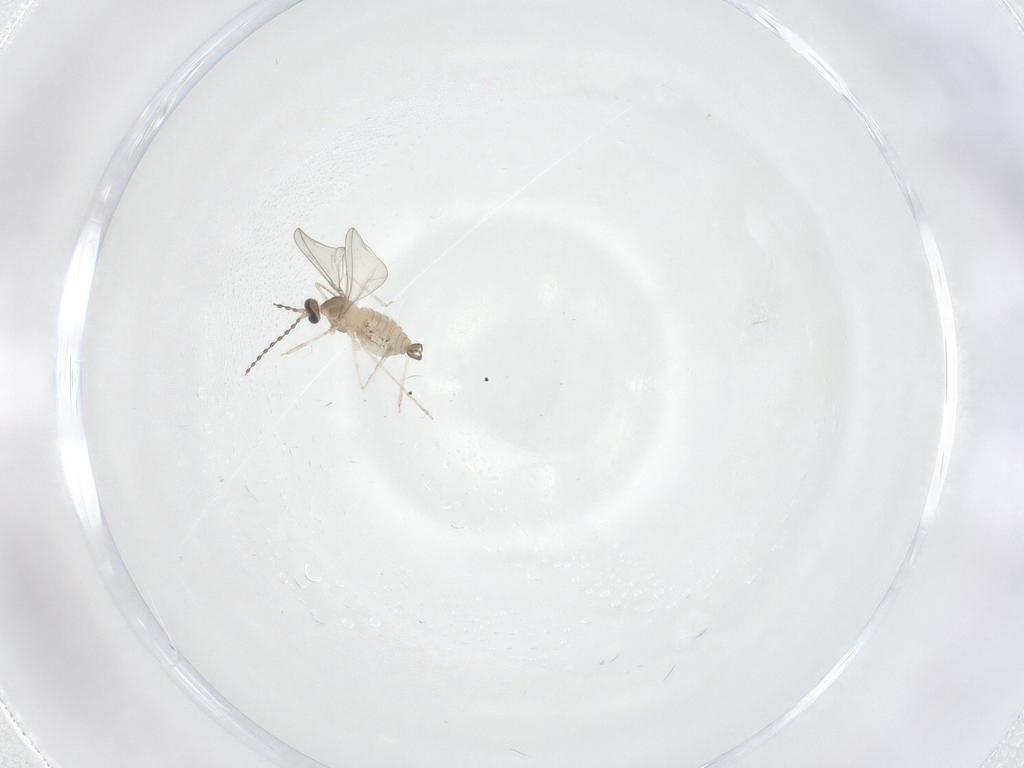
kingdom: Animalia
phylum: Arthropoda
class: Insecta
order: Diptera
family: Cecidomyiidae
